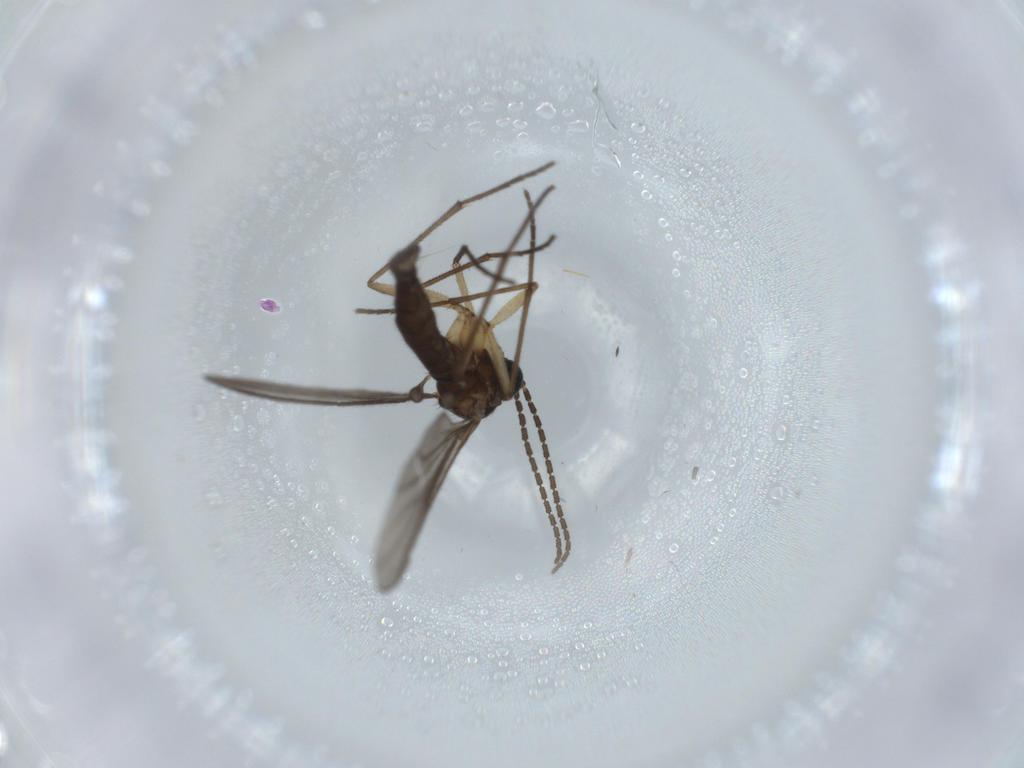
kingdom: Animalia
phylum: Arthropoda
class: Insecta
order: Diptera
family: Sciaridae
